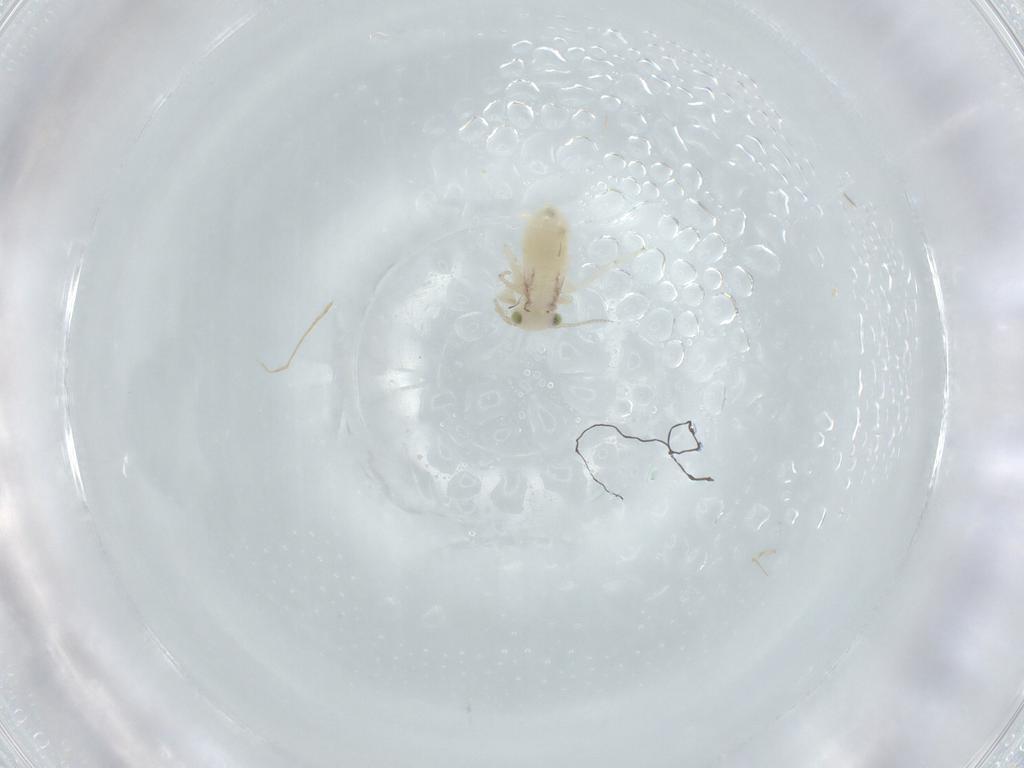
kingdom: Animalia
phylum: Arthropoda
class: Insecta
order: Psocodea
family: Lepidopsocidae
